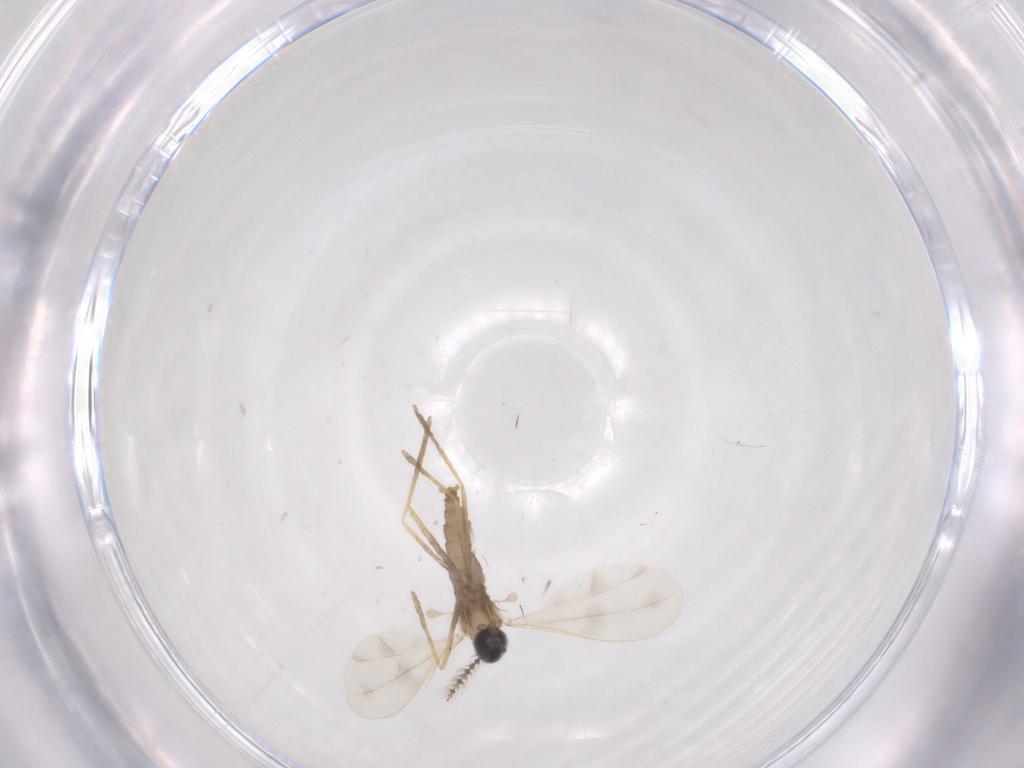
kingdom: Animalia
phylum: Arthropoda
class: Insecta
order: Diptera
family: Cecidomyiidae
